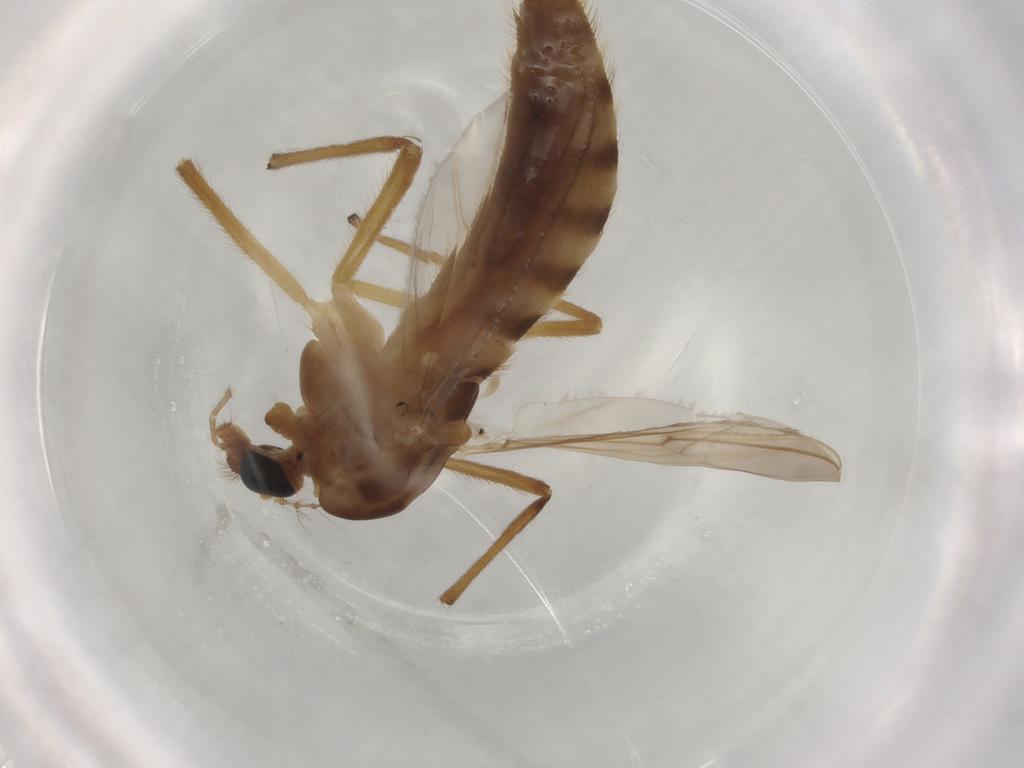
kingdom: Animalia
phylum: Arthropoda
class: Insecta
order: Diptera
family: Chironomidae
